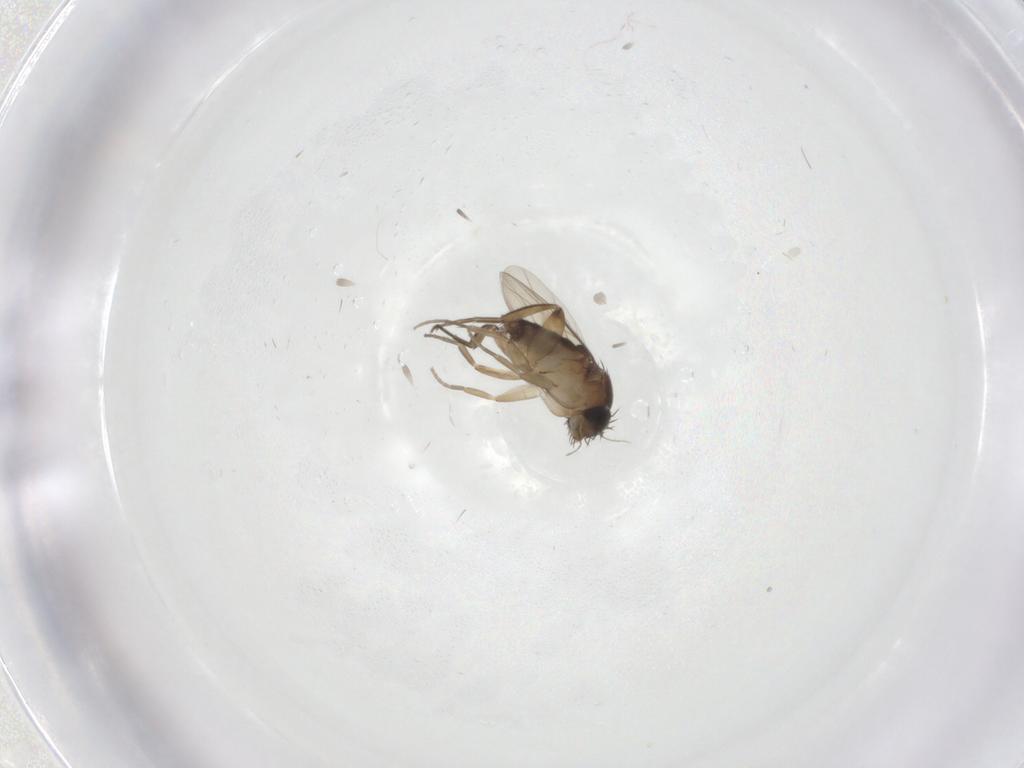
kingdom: Animalia
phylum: Arthropoda
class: Insecta
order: Diptera
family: Phoridae
